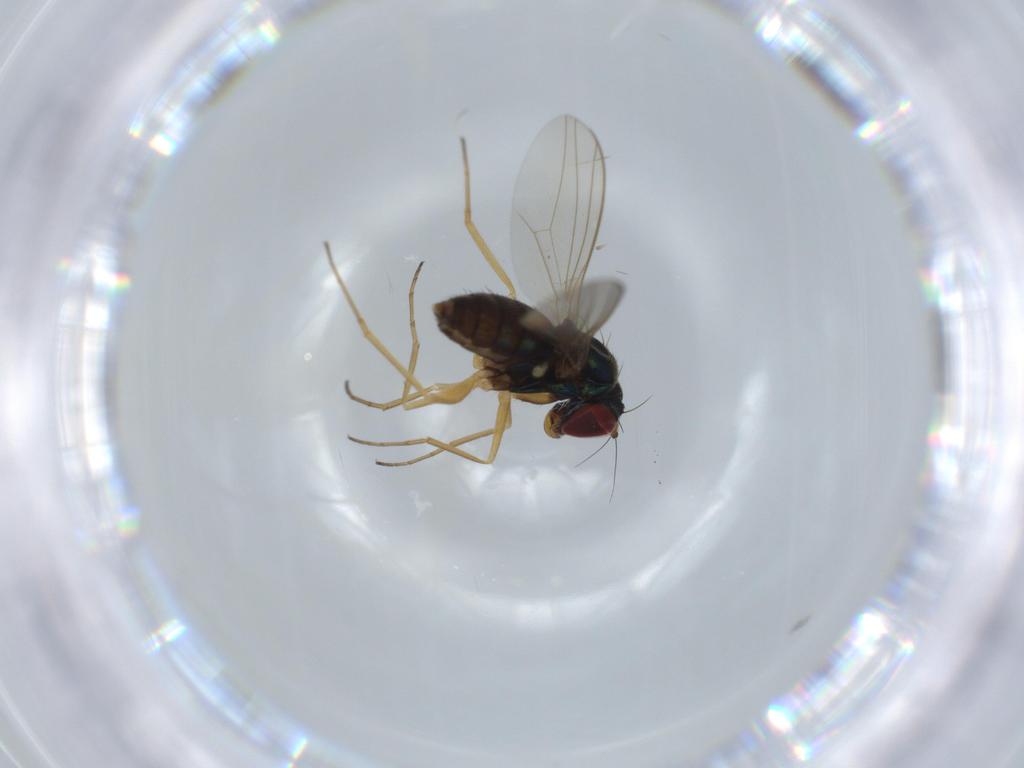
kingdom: Animalia
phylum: Arthropoda
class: Insecta
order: Diptera
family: Dolichopodidae
